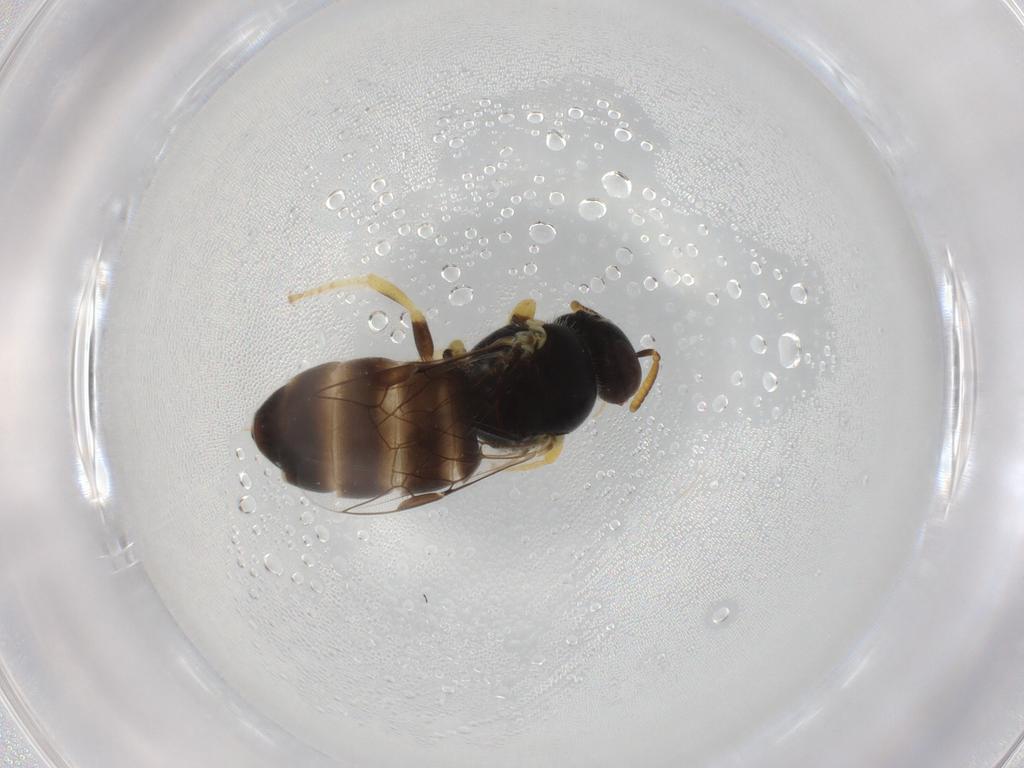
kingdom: Animalia
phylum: Arthropoda
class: Insecta
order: Hymenoptera
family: Colletidae
